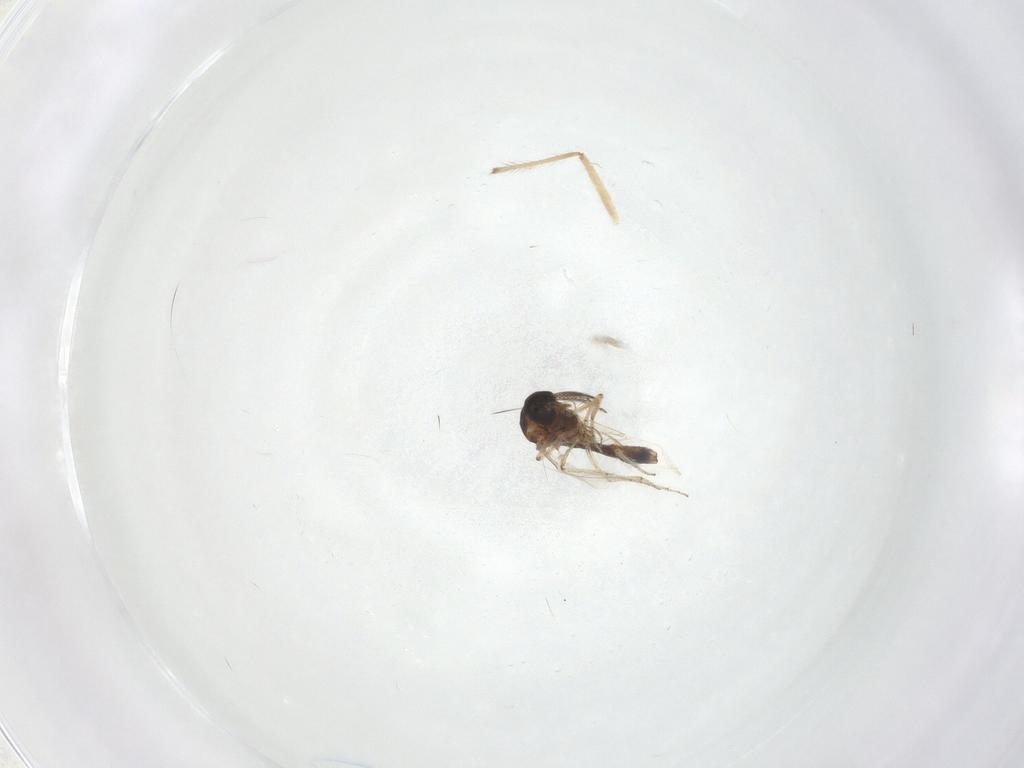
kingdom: Animalia
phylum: Arthropoda
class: Insecta
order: Diptera
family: Ceratopogonidae
